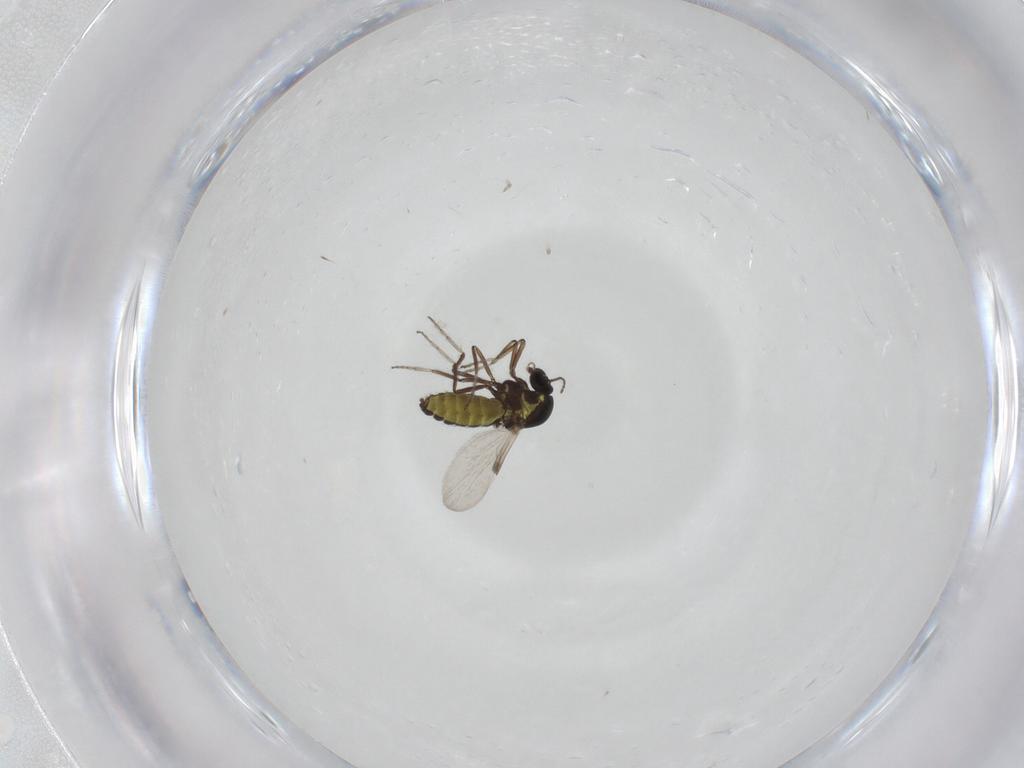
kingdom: Animalia
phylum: Arthropoda
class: Insecta
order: Diptera
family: Ceratopogonidae
